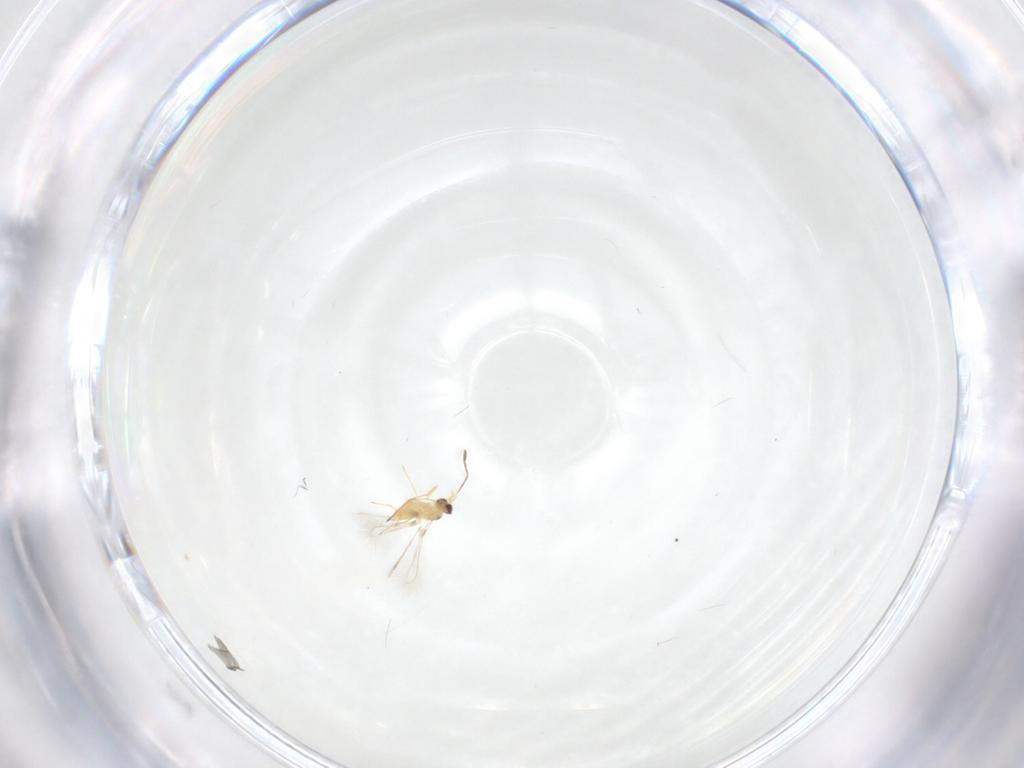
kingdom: Animalia
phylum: Arthropoda
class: Insecta
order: Hymenoptera
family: Mymaridae
